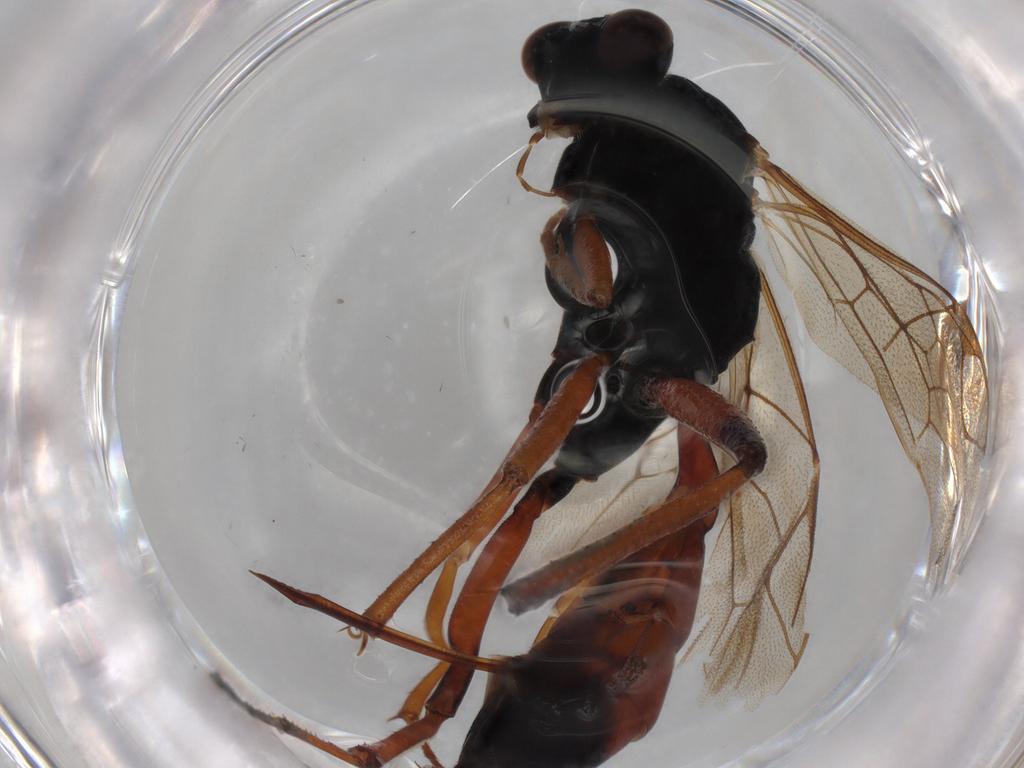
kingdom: Animalia
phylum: Arthropoda
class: Insecta
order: Hymenoptera
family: Ichneumonidae
